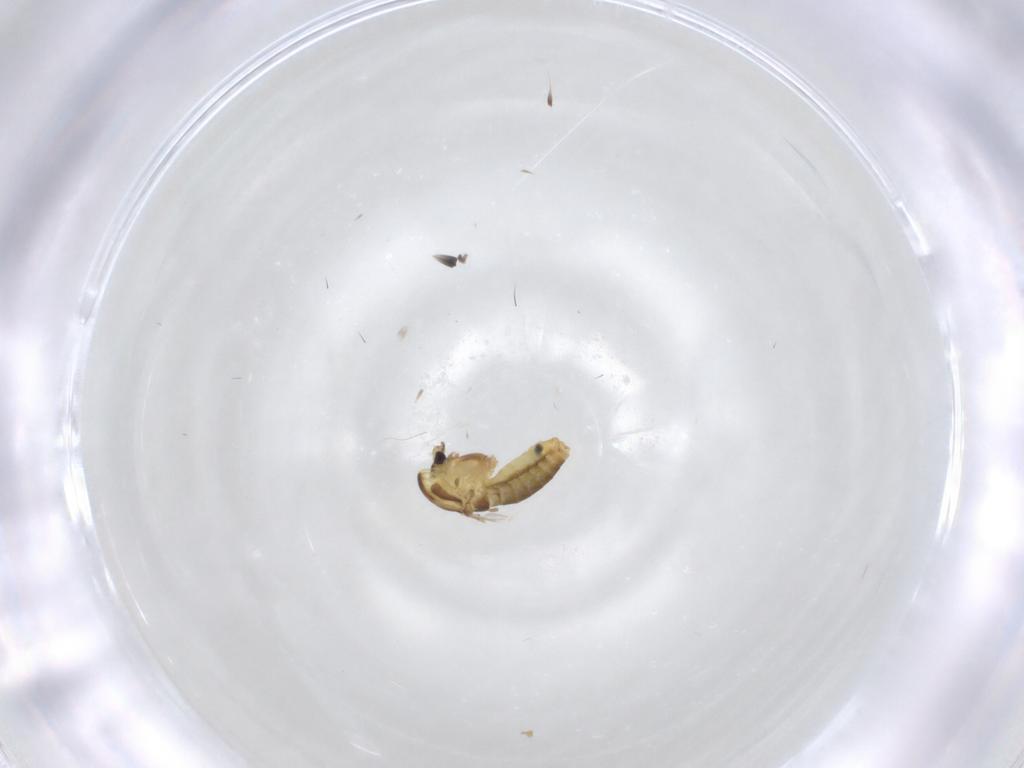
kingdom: Animalia
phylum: Arthropoda
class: Insecta
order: Diptera
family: Chironomidae
